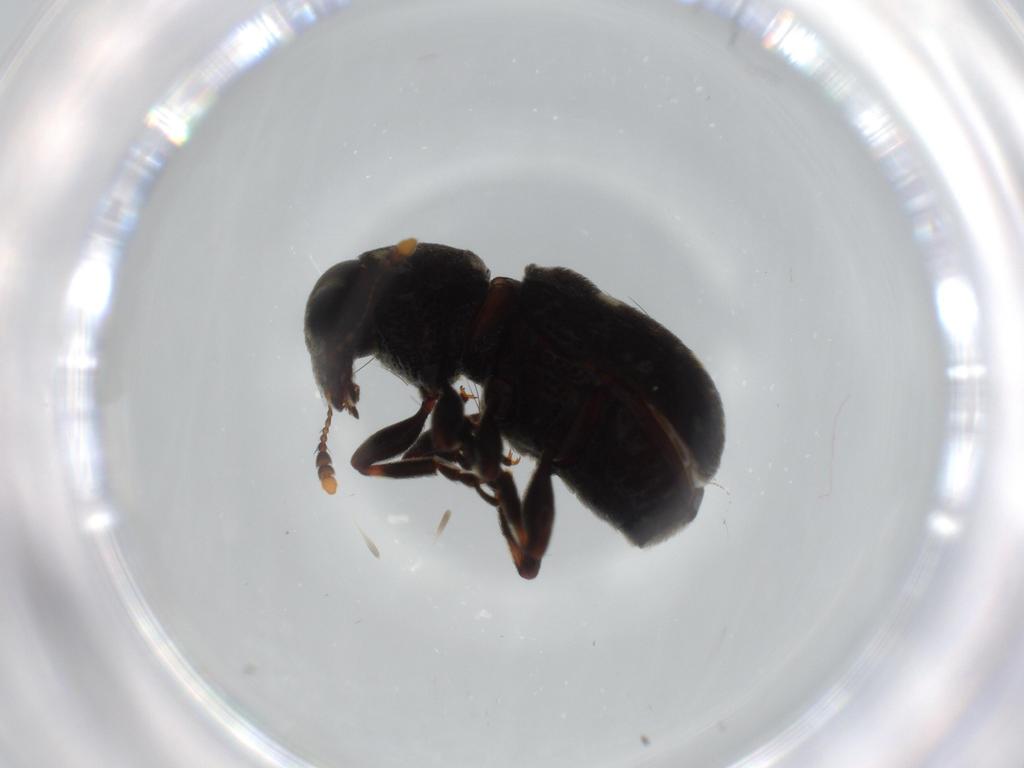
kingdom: Animalia
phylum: Arthropoda
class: Insecta
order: Coleoptera
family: Anthribidae
